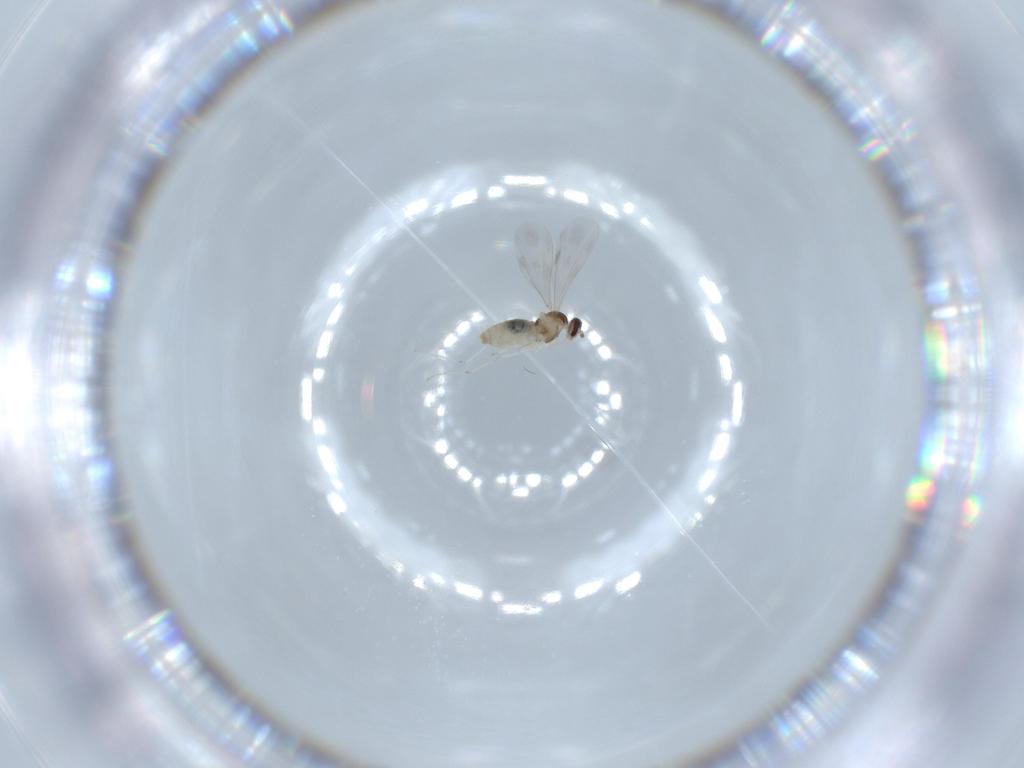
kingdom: Animalia
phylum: Arthropoda
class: Insecta
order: Diptera
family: Cecidomyiidae
